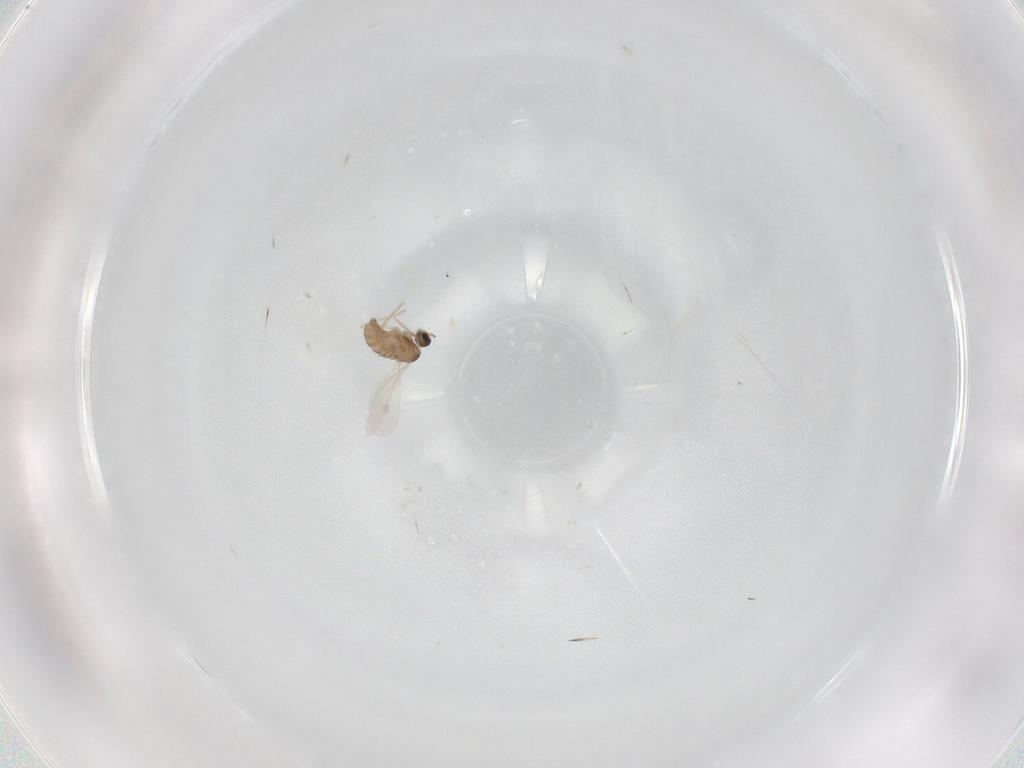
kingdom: Animalia
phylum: Arthropoda
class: Insecta
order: Diptera
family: Cecidomyiidae
